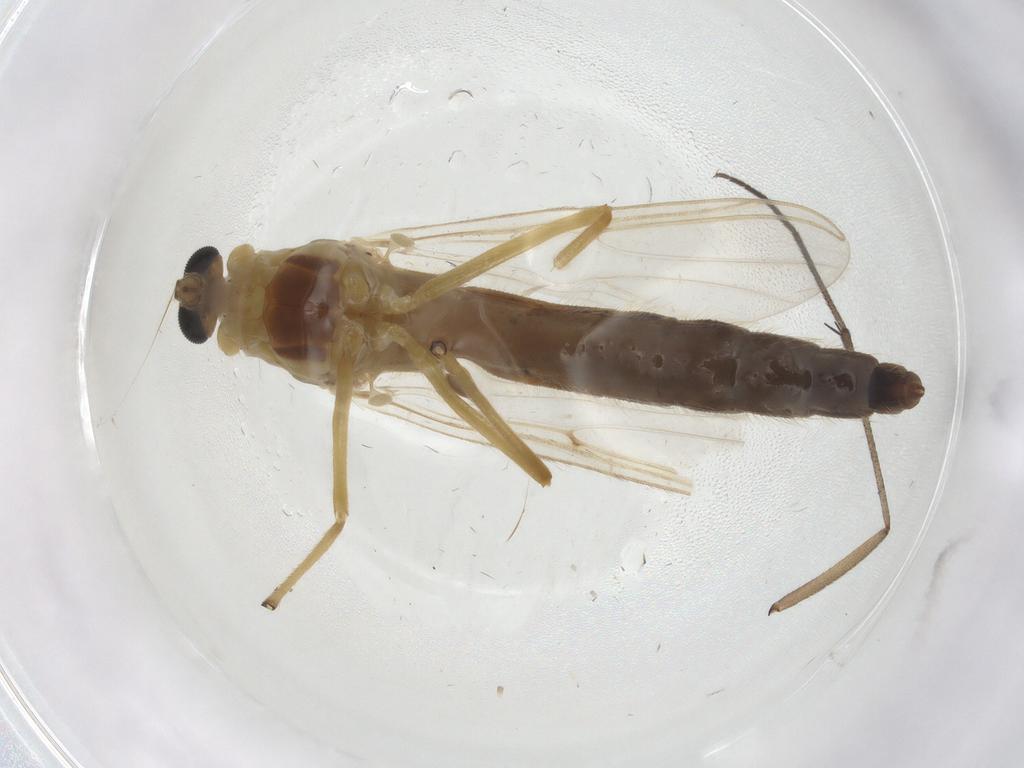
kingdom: Animalia
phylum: Arthropoda
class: Insecta
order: Diptera
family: Chironomidae
